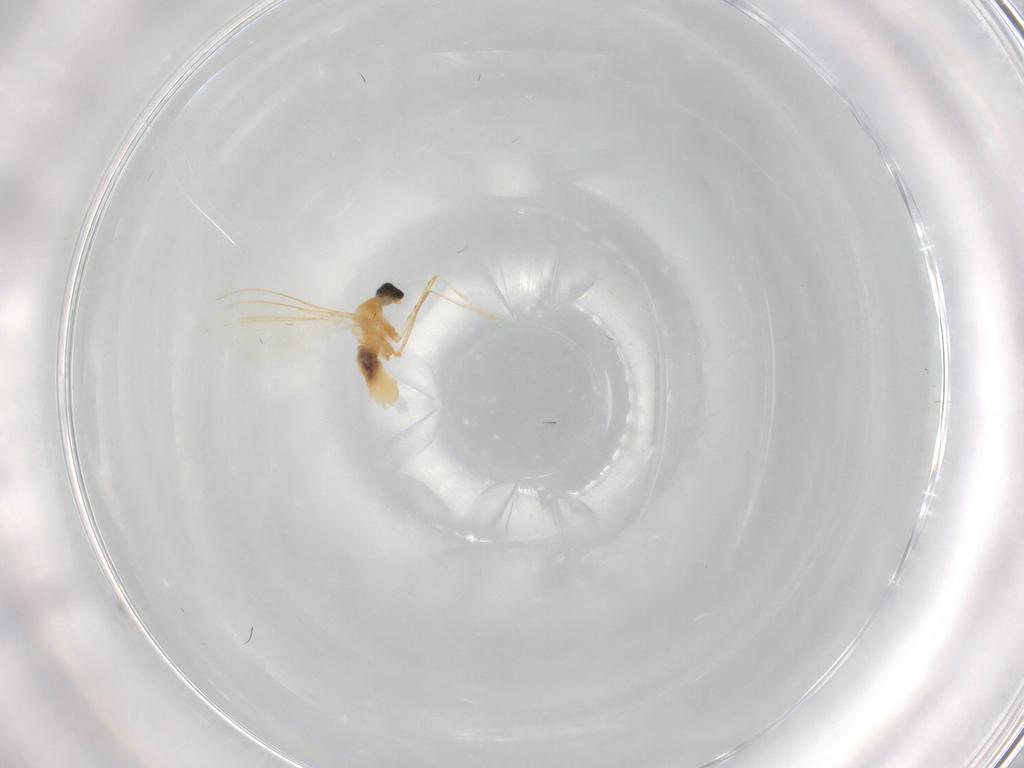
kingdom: Animalia
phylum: Arthropoda
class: Insecta
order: Diptera
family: Cecidomyiidae
